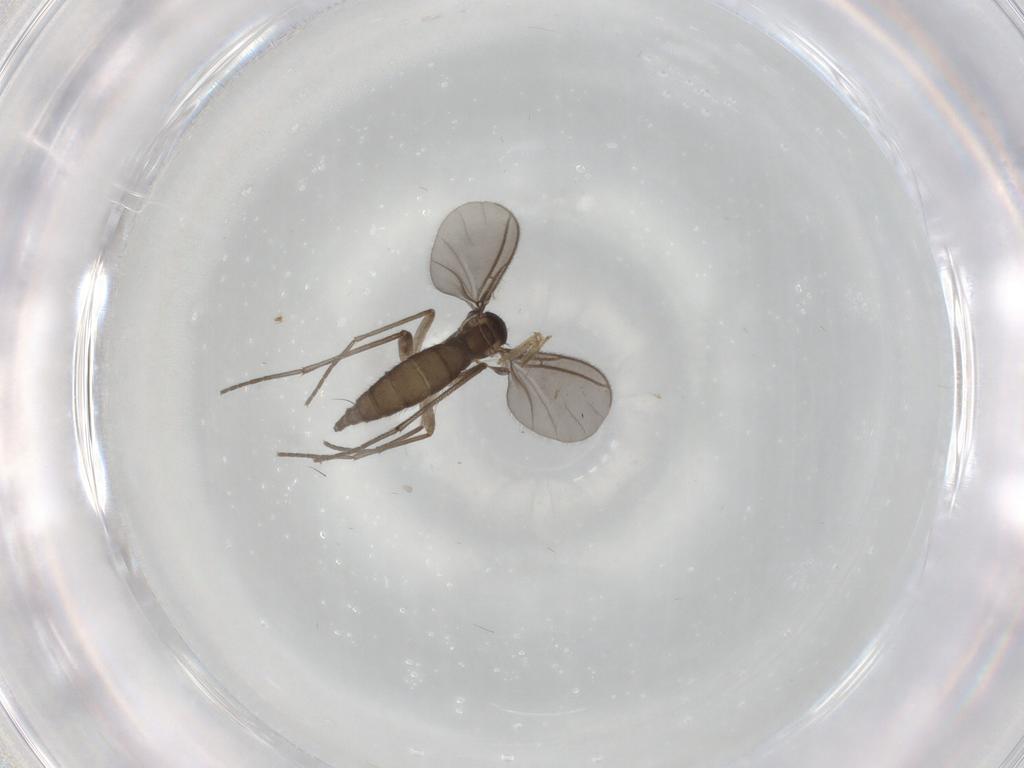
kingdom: Animalia
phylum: Arthropoda
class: Insecta
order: Diptera
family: Sciaridae
